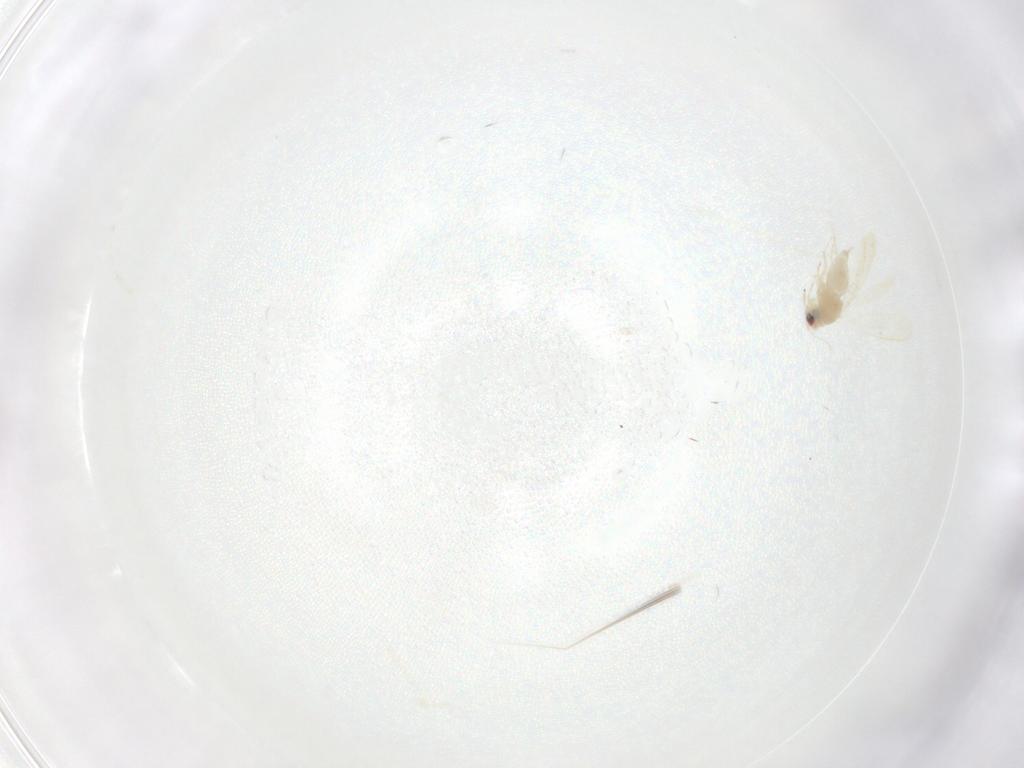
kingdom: Animalia
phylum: Arthropoda
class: Insecta
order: Diptera
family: Drosophilidae
